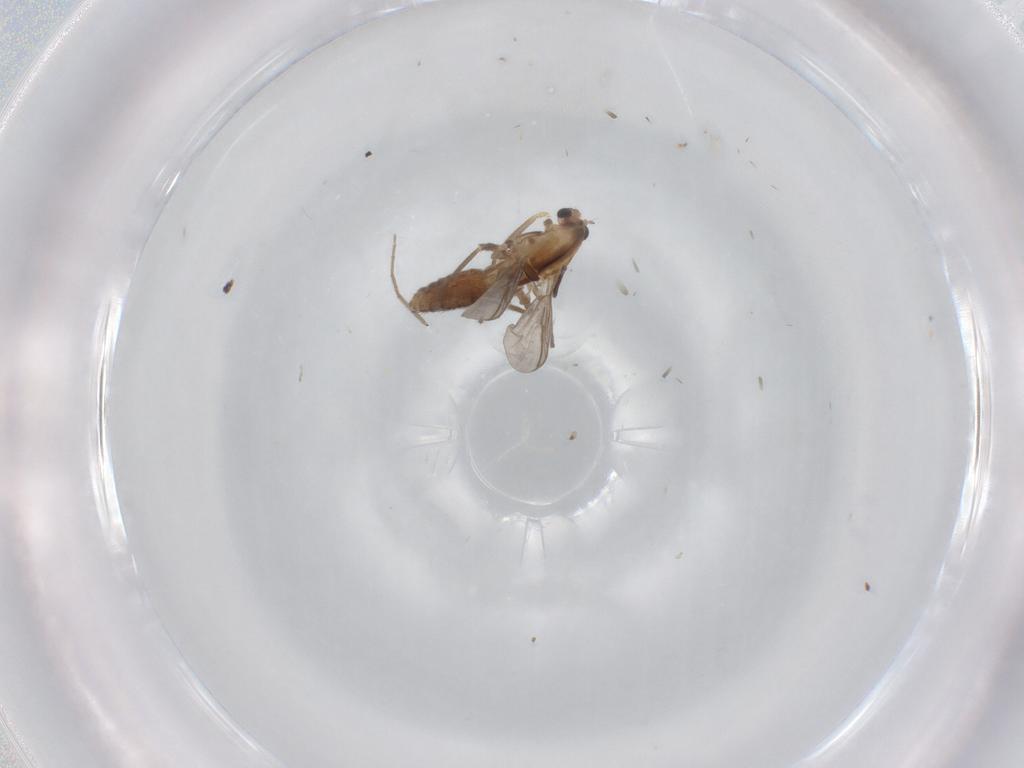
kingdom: Animalia
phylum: Arthropoda
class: Insecta
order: Diptera
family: Chironomidae
